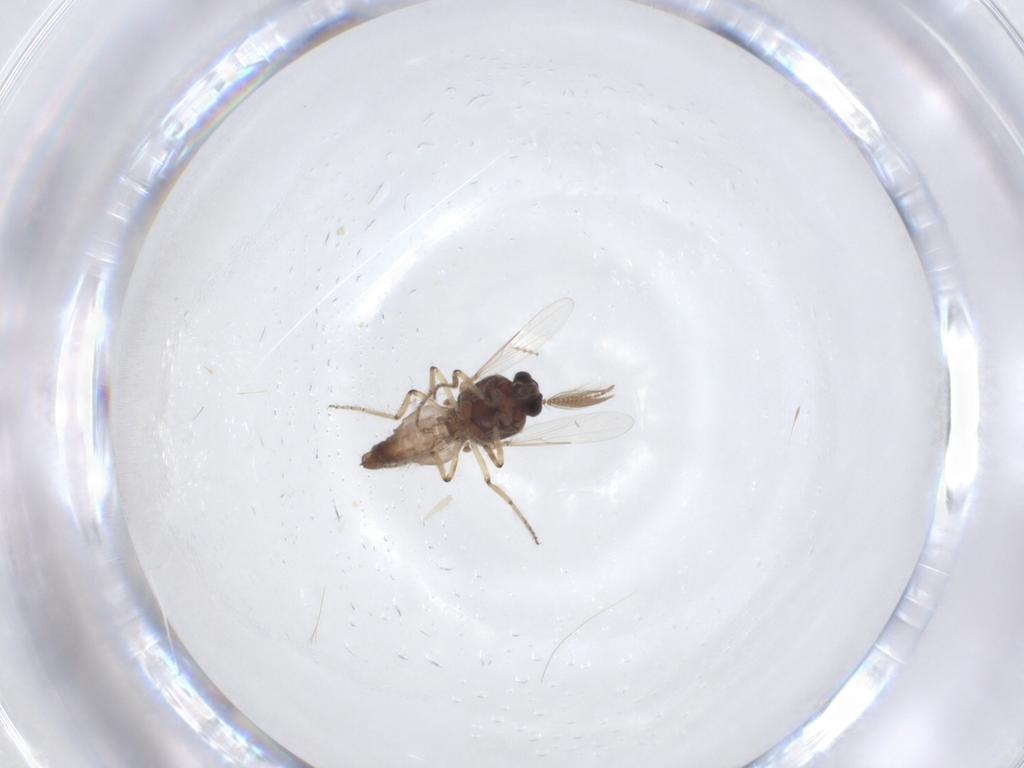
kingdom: Animalia
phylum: Arthropoda
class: Insecta
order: Diptera
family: Ceratopogonidae
